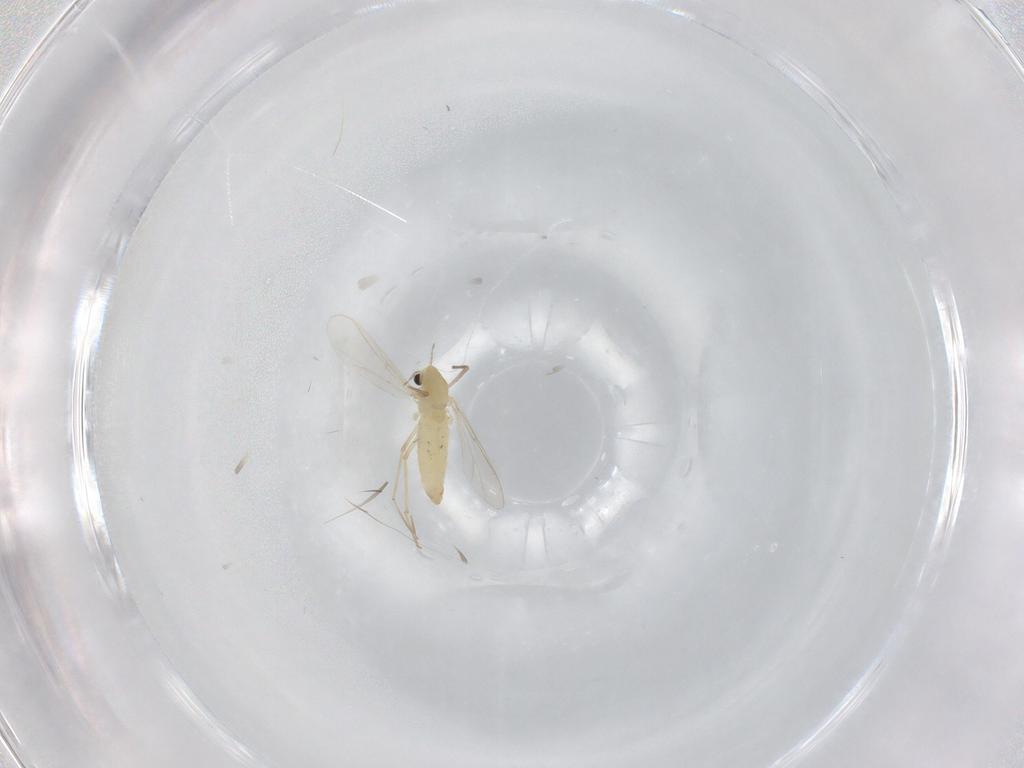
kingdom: Animalia
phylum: Arthropoda
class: Insecta
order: Diptera
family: Chironomidae
